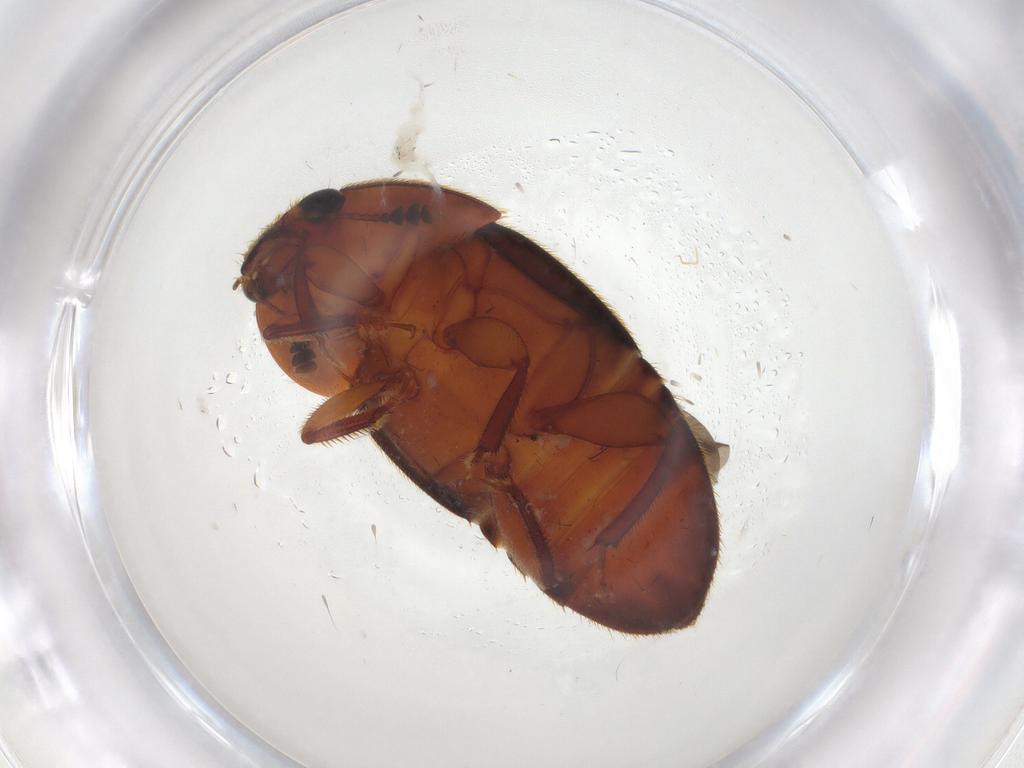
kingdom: Animalia
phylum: Arthropoda
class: Insecta
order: Coleoptera
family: Nitidulidae
